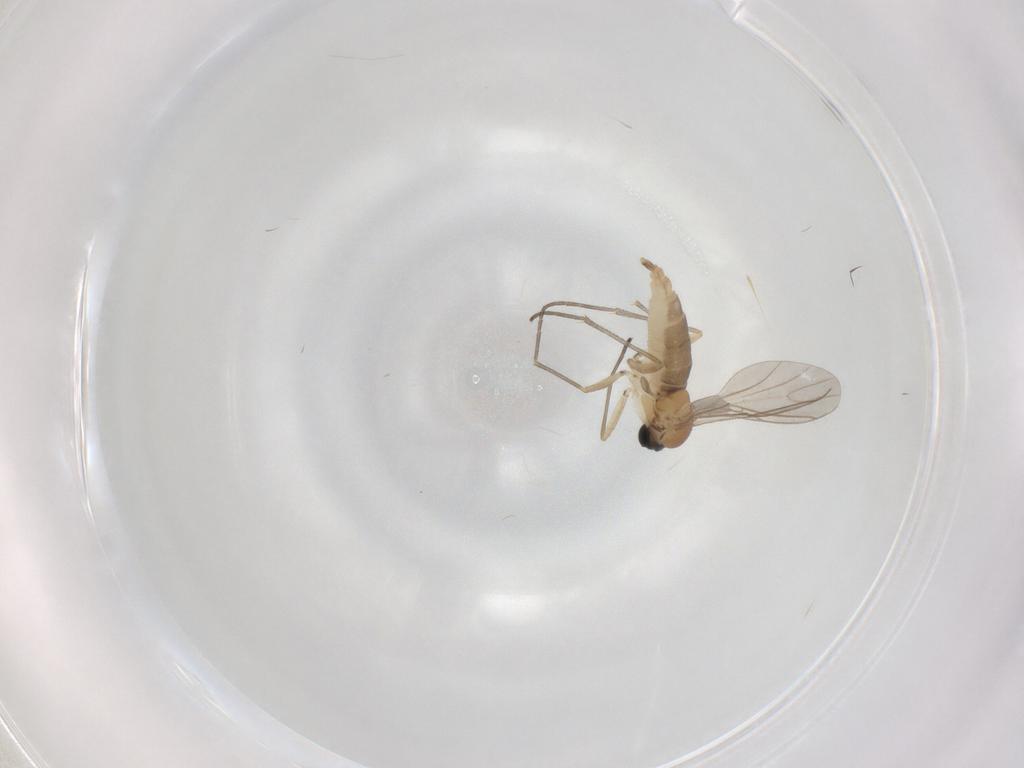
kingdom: Animalia
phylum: Arthropoda
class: Insecta
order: Diptera
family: Sciaridae
